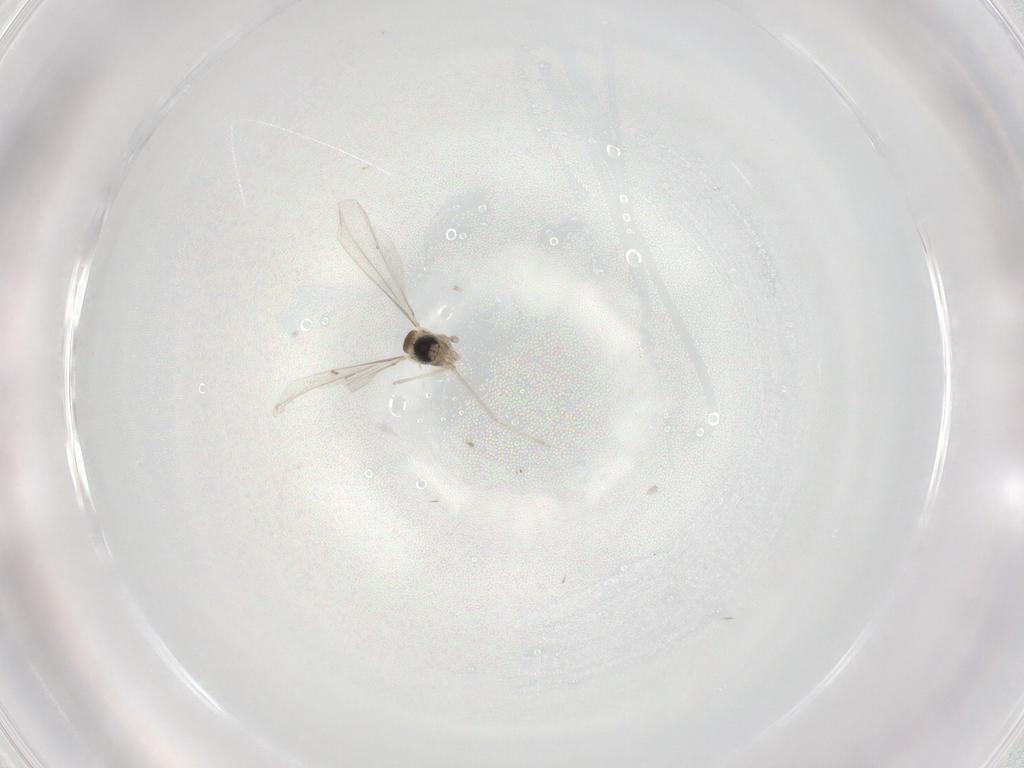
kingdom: Animalia
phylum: Arthropoda
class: Insecta
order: Diptera
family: Cecidomyiidae
